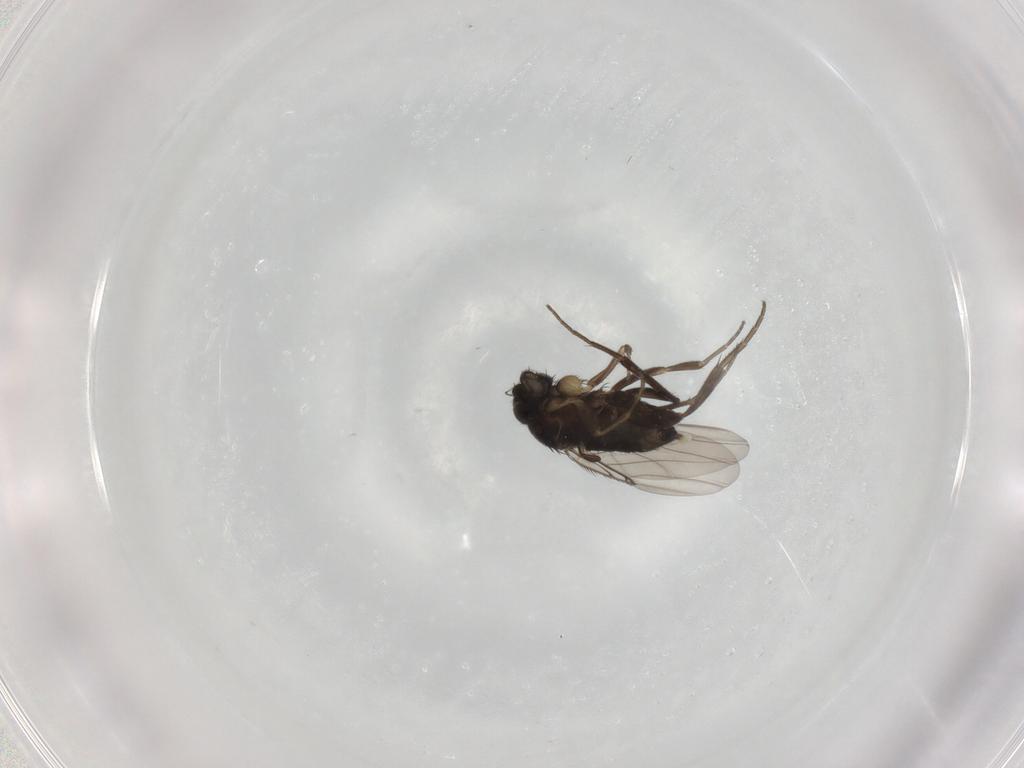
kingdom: Animalia
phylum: Arthropoda
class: Insecta
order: Diptera
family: Phoridae
